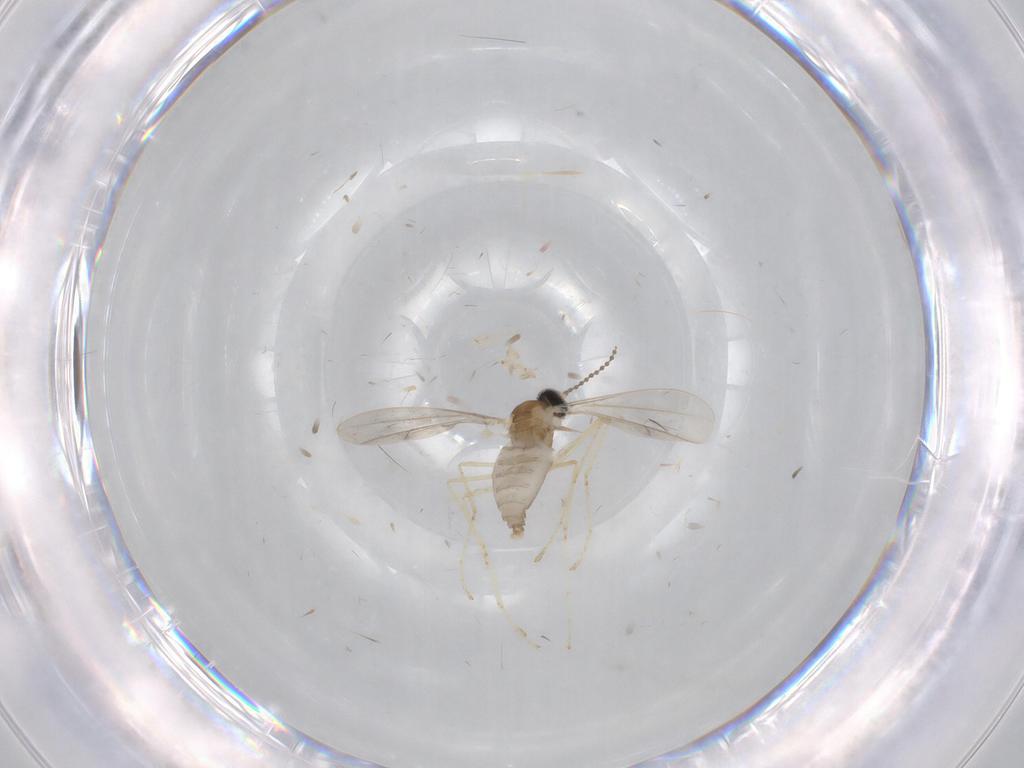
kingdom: Animalia
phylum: Arthropoda
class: Insecta
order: Diptera
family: Cecidomyiidae
